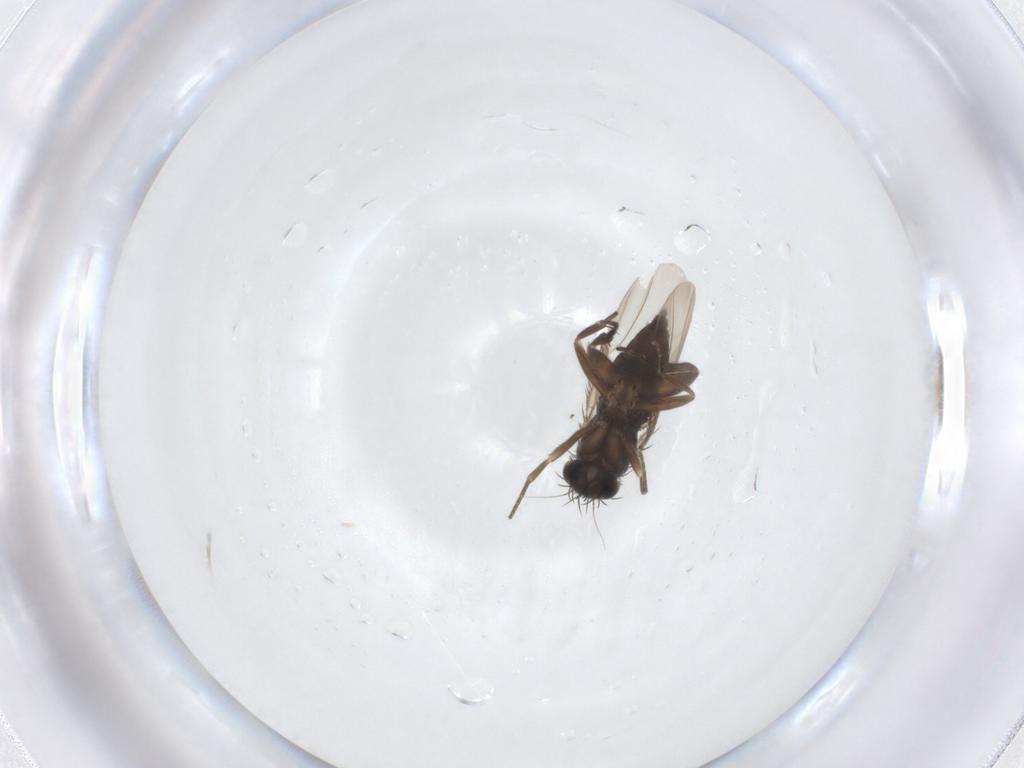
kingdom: Animalia
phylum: Arthropoda
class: Insecta
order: Diptera
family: Phoridae
